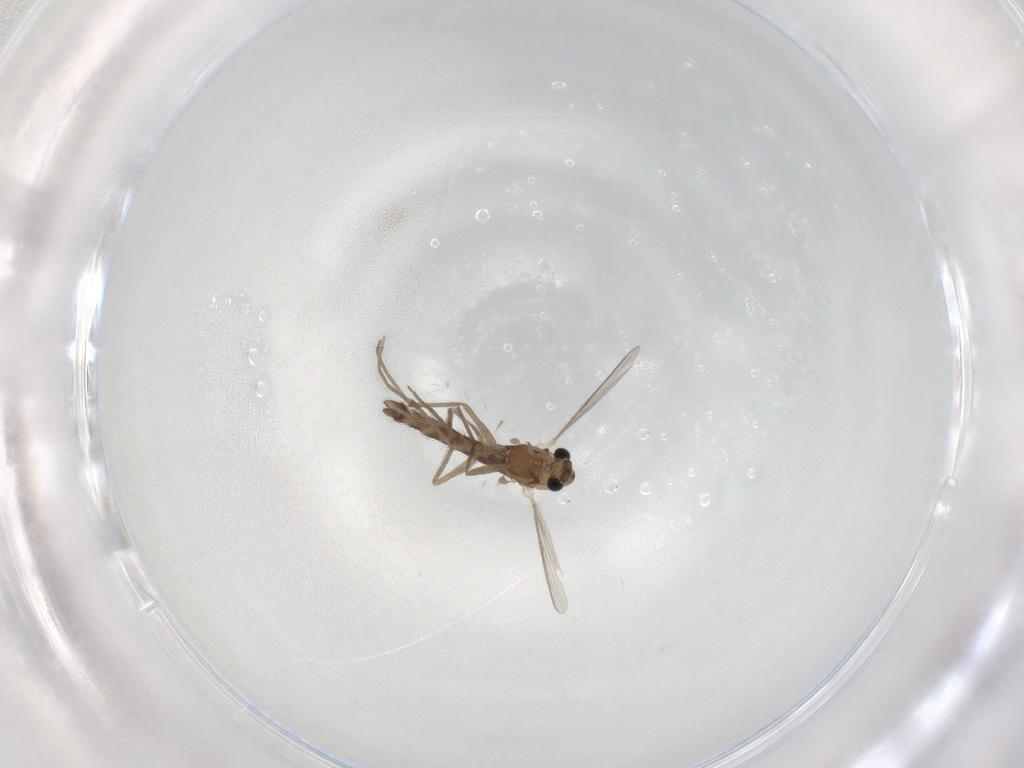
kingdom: Animalia
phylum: Arthropoda
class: Insecta
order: Diptera
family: Chironomidae
